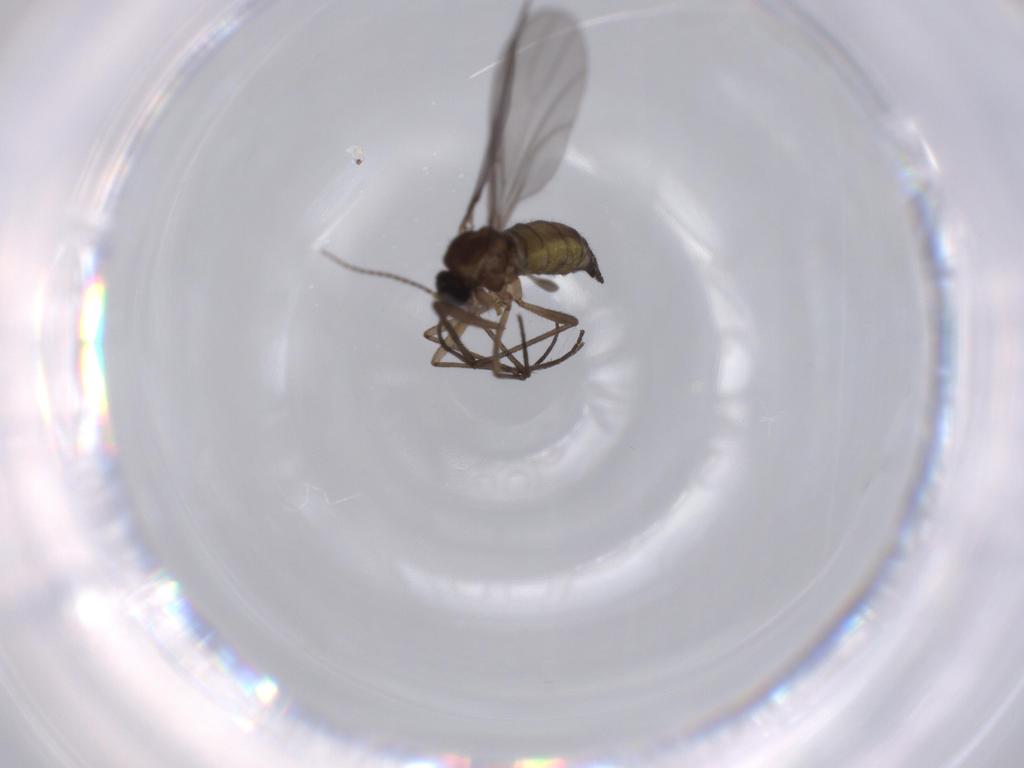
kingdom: Animalia
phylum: Arthropoda
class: Insecta
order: Diptera
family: Sciaridae
